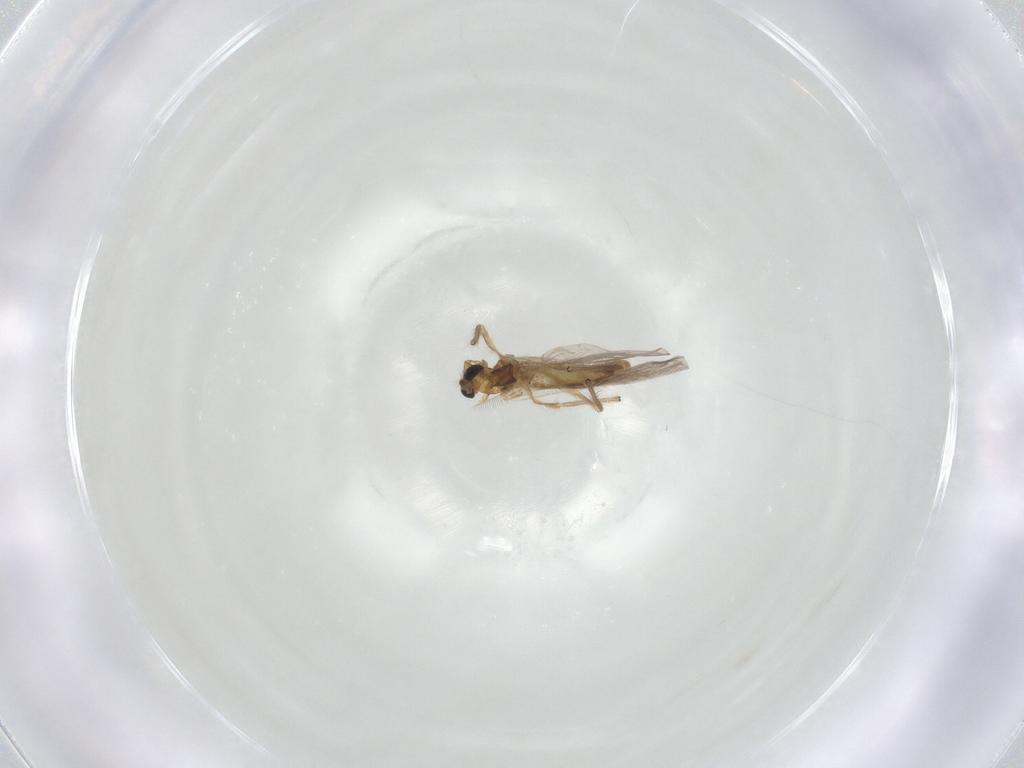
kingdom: Animalia
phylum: Arthropoda
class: Insecta
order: Diptera
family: Chironomidae
